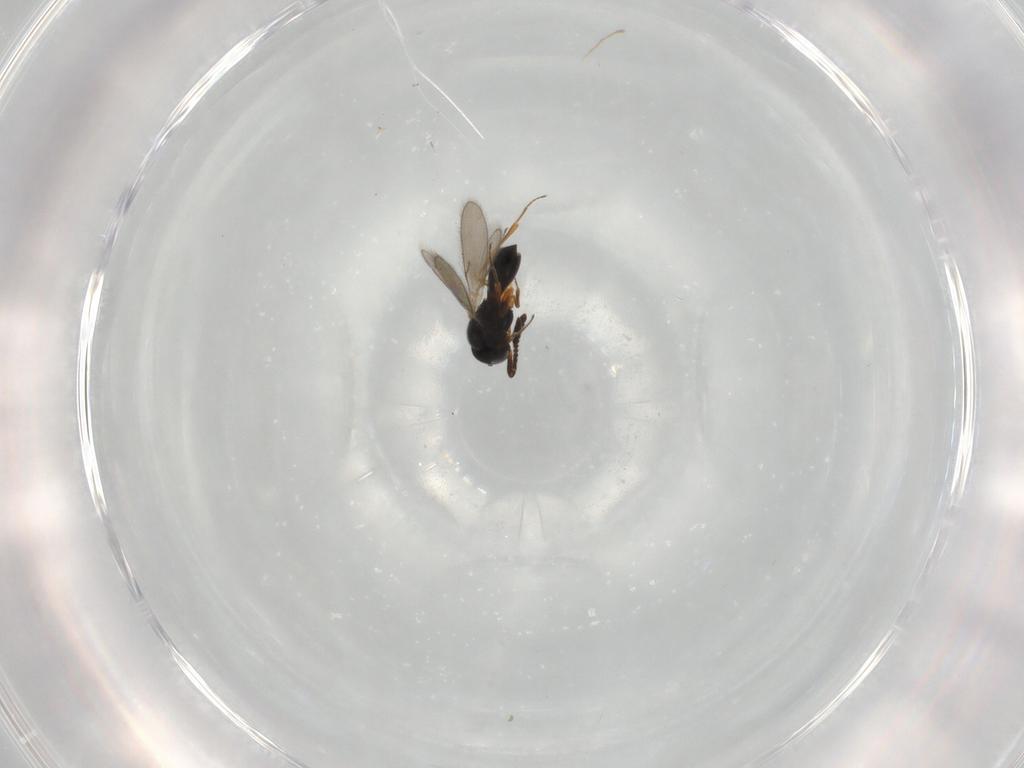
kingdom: Animalia
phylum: Arthropoda
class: Insecta
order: Hymenoptera
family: Scelionidae
